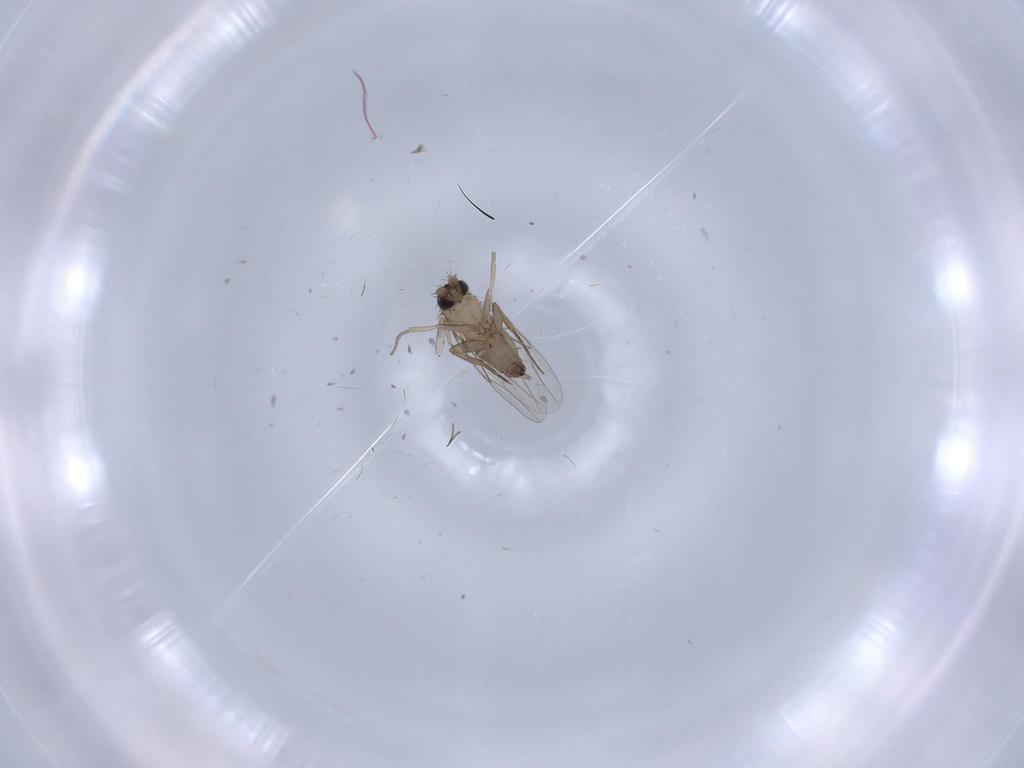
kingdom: Animalia
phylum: Arthropoda
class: Insecta
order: Diptera
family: Phoridae
